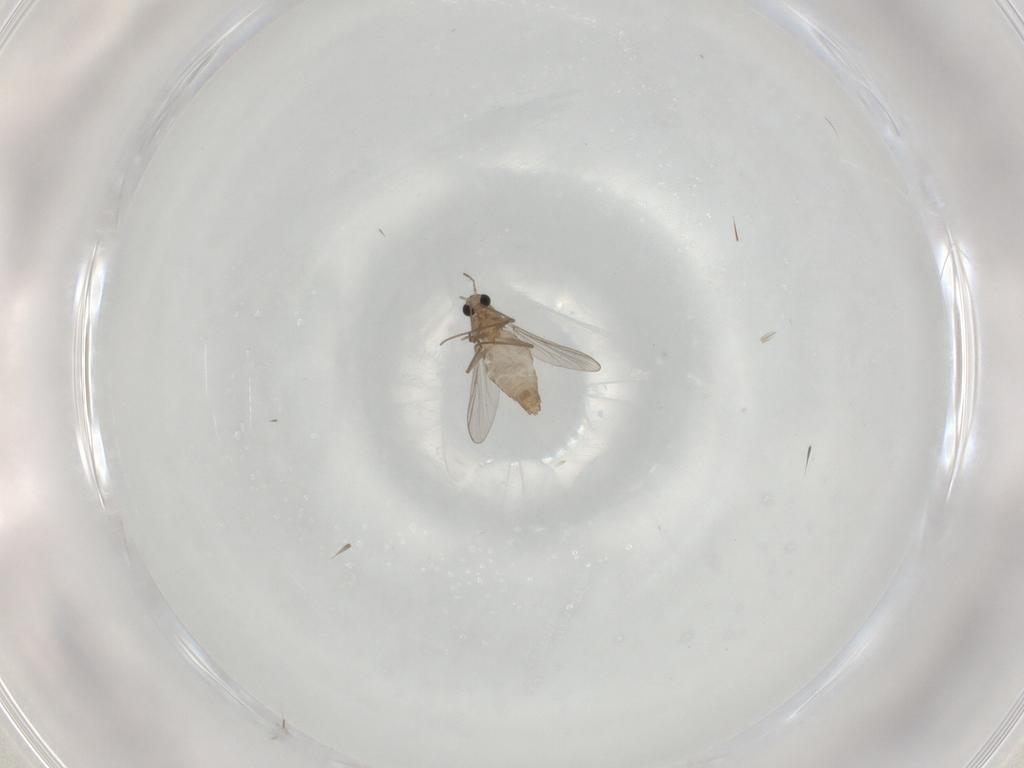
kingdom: Animalia
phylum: Arthropoda
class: Insecta
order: Diptera
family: Chironomidae
